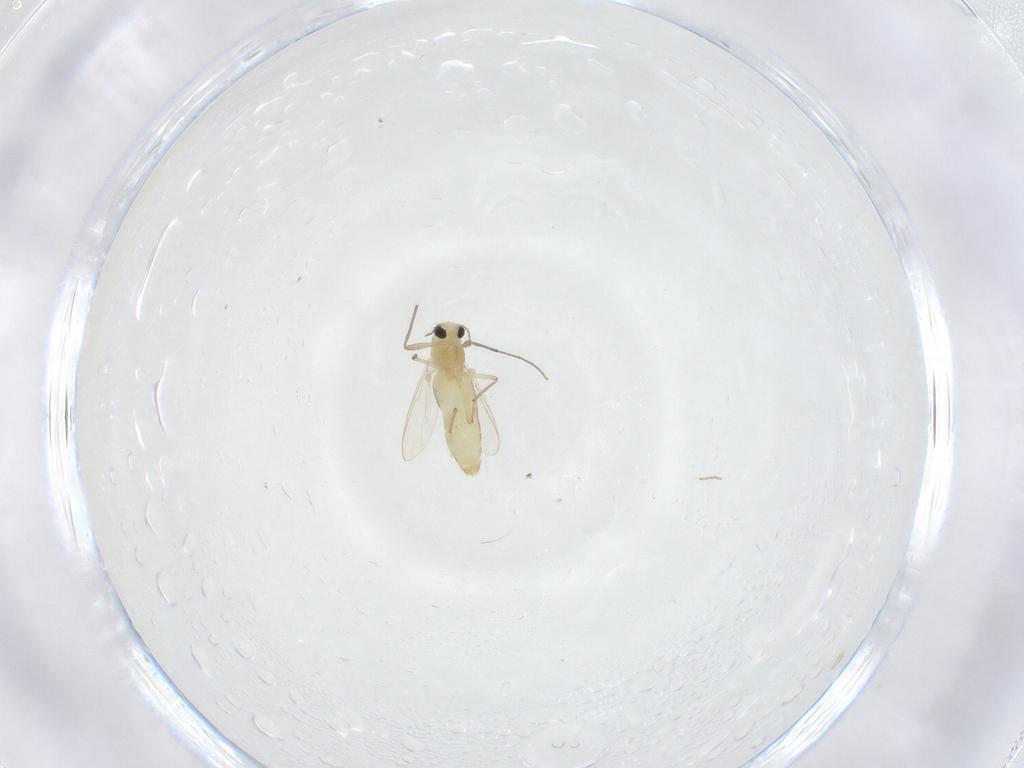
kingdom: Animalia
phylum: Arthropoda
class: Insecta
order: Diptera
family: Chironomidae
